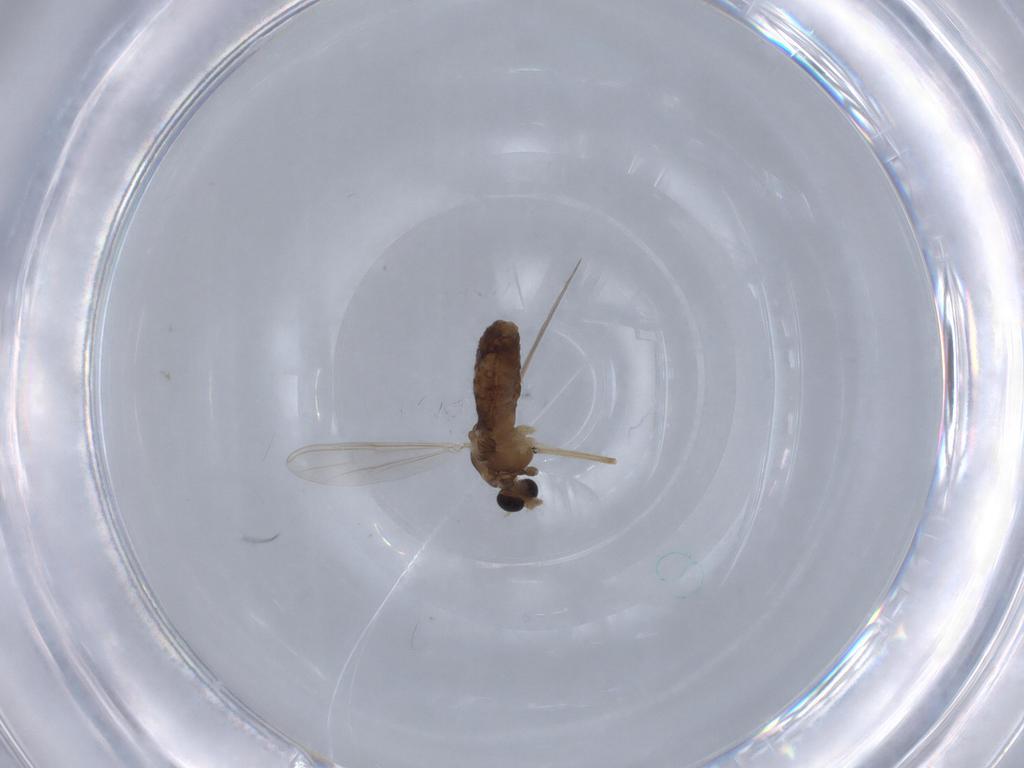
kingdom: Animalia
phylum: Arthropoda
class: Insecta
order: Diptera
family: Chironomidae
